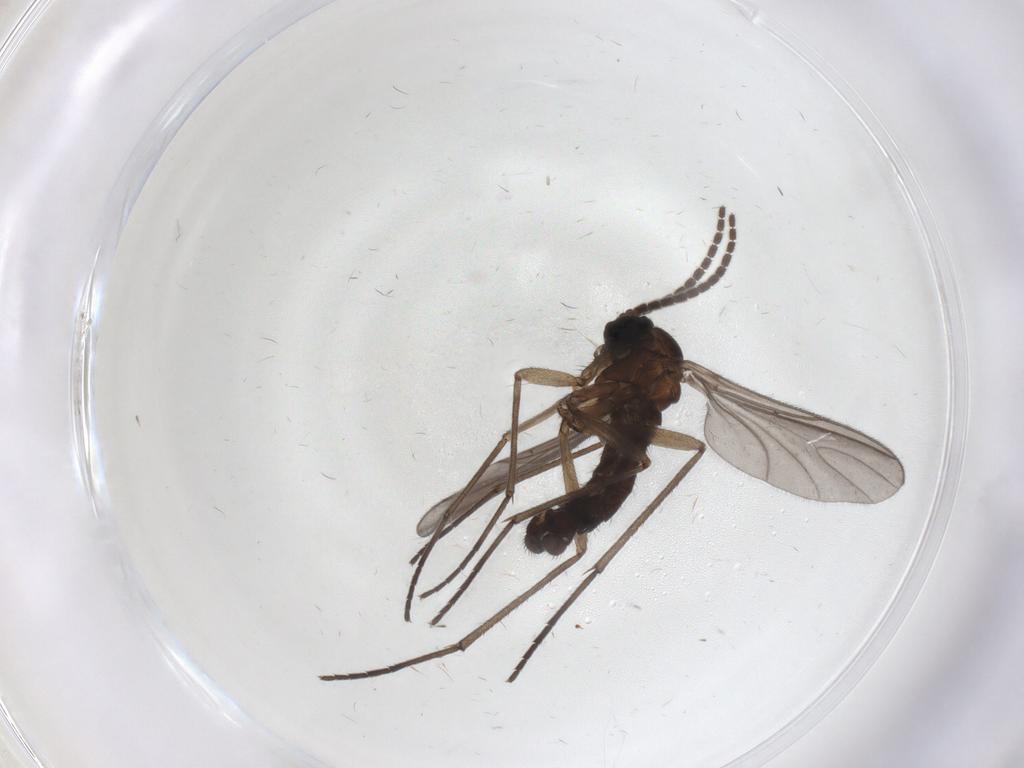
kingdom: Animalia
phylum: Arthropoda
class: Insecta
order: Diptera
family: Sciaridae
